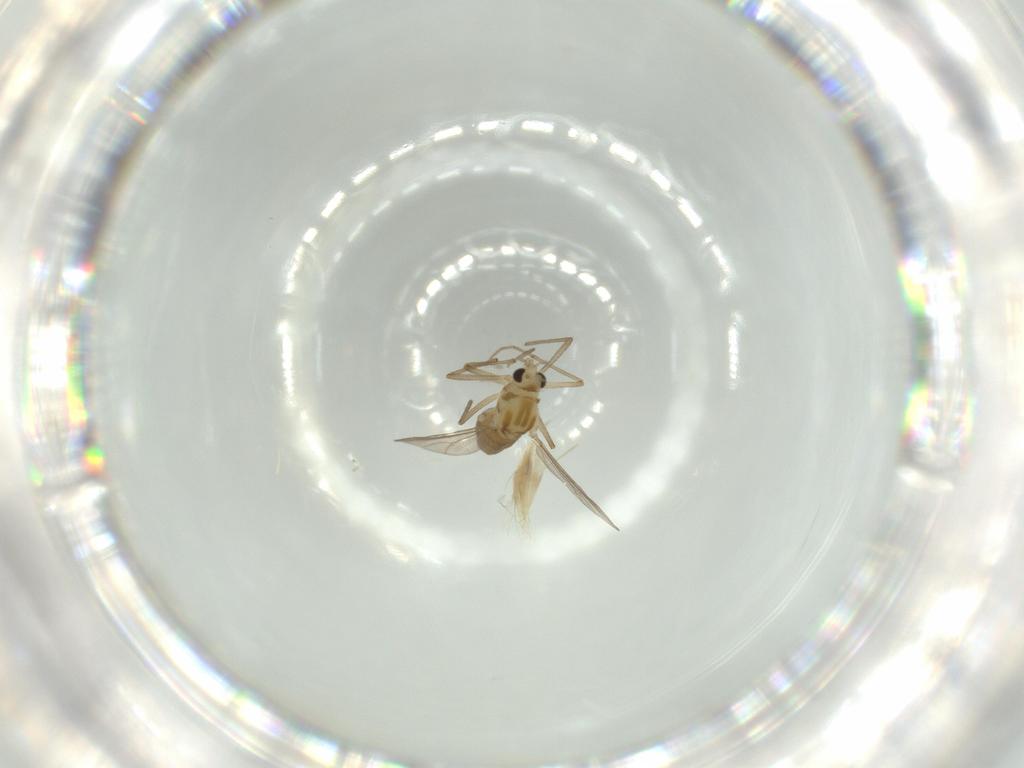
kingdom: Animalia
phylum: Arthropoda
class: Insecta
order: Diptera
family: Chironomidae
